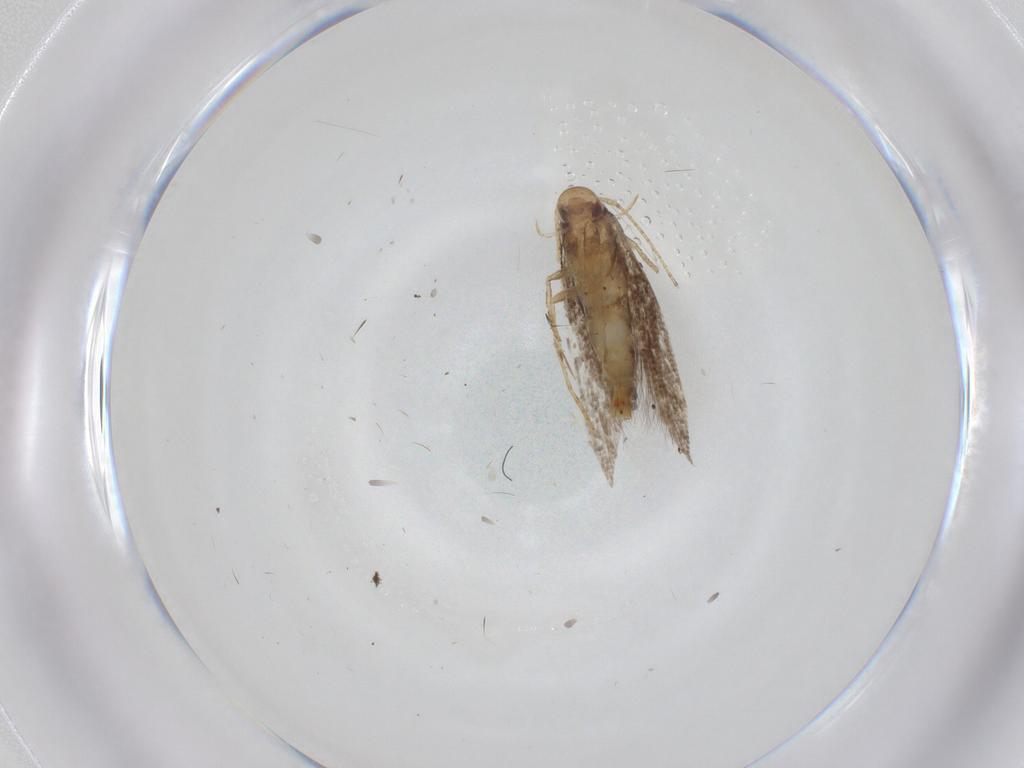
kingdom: Animalia
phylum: Arthropoda
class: Insecta
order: Lepidoptera
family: Momphidae
